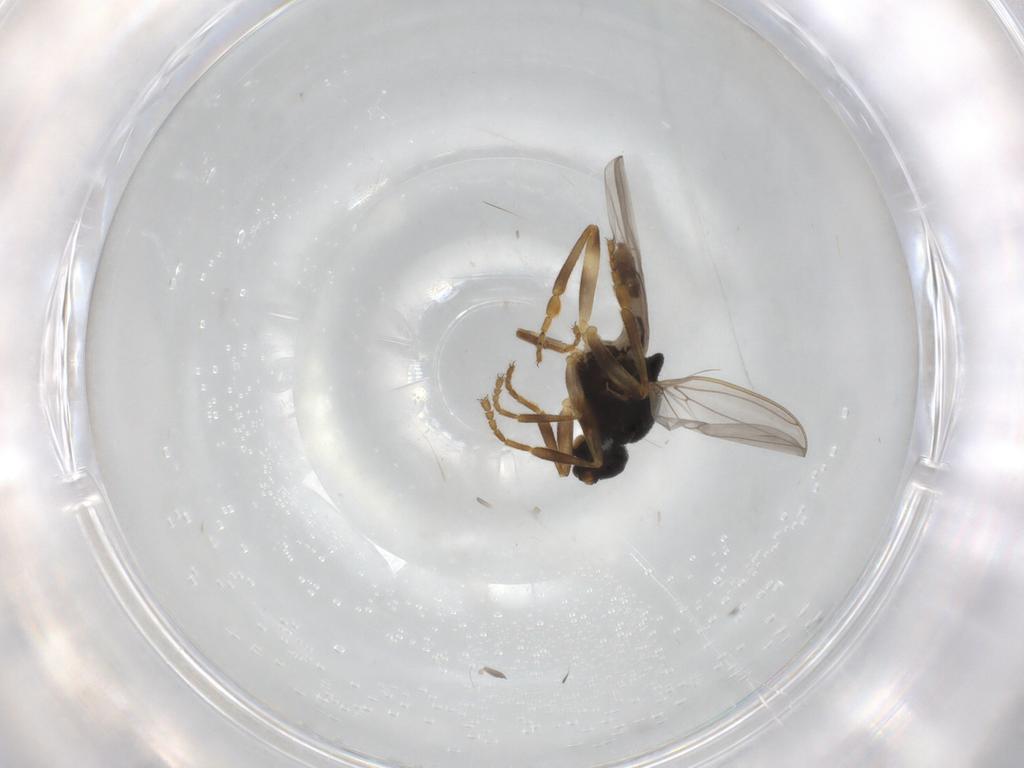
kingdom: Animalia
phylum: Arthropoda
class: Insecta
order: Diptera
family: Sphaeroceridae
